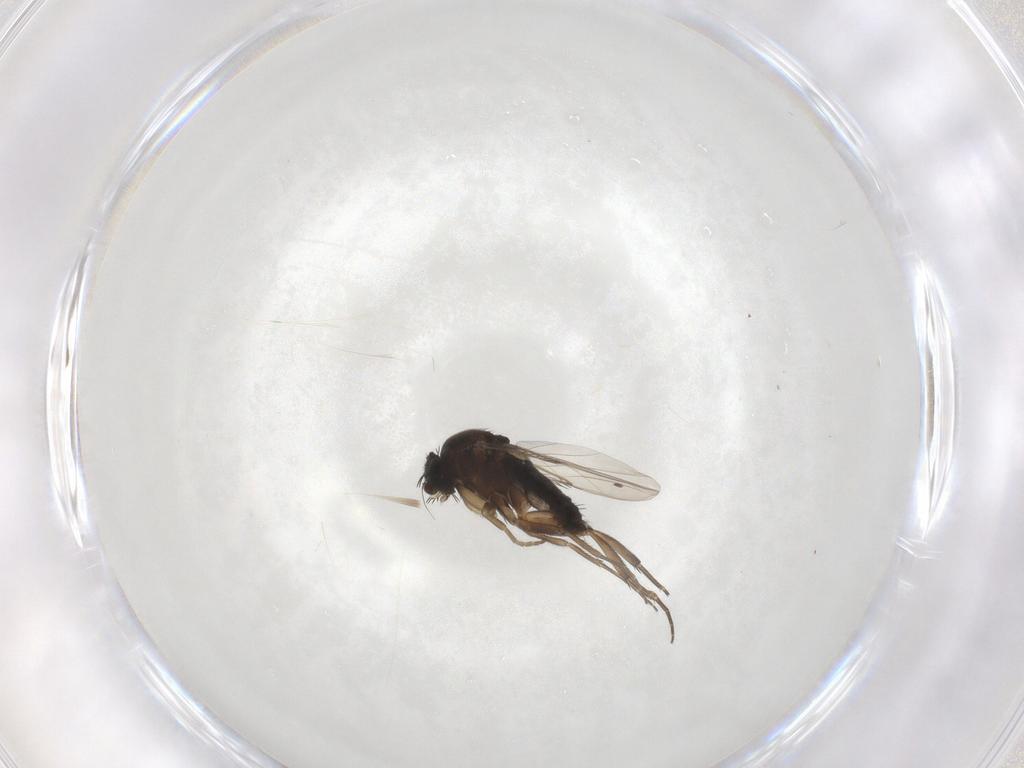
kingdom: Animalia
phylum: Arthropoda
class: Insecta
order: Diptera
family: Phoridae
